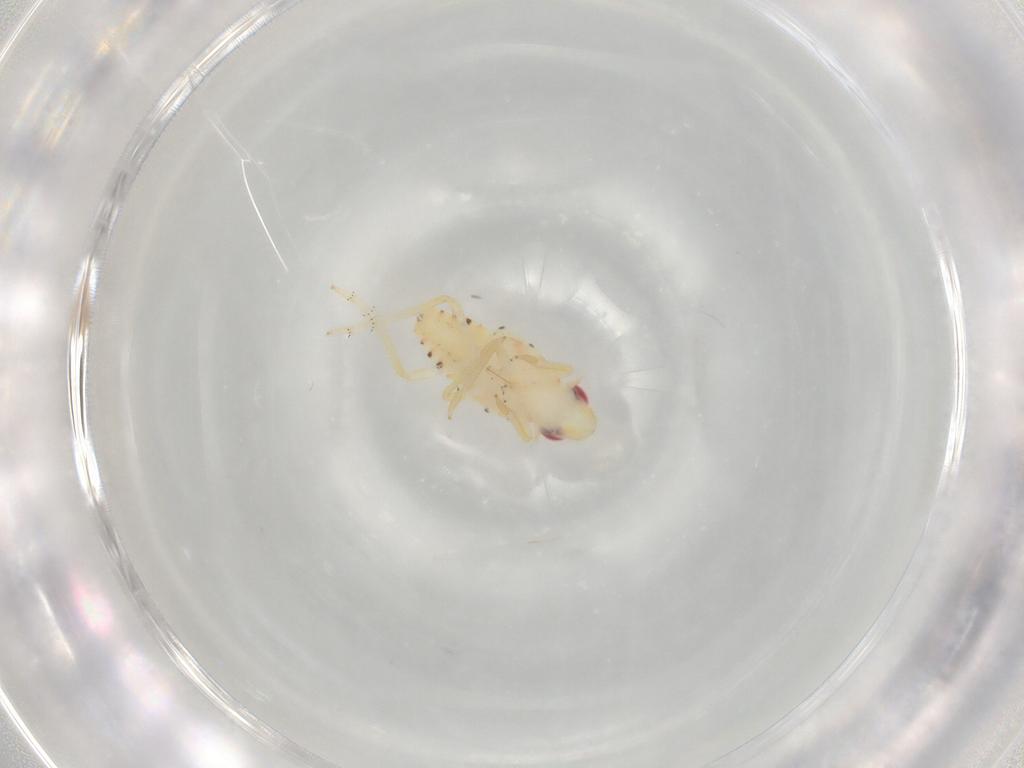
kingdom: Animalia
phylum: Arthropoda
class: Insecta
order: Hemiptera
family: Tropiduchidae
